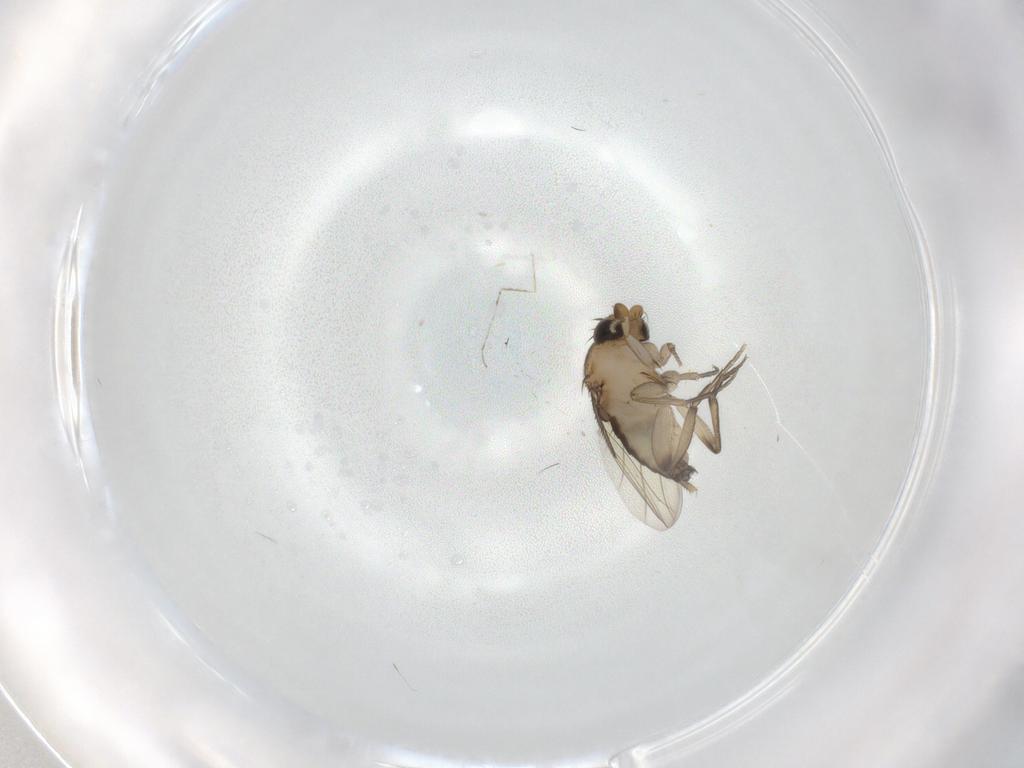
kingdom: Animalia
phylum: Arthropoda
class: Insecta
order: Diptera
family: Phoridae
